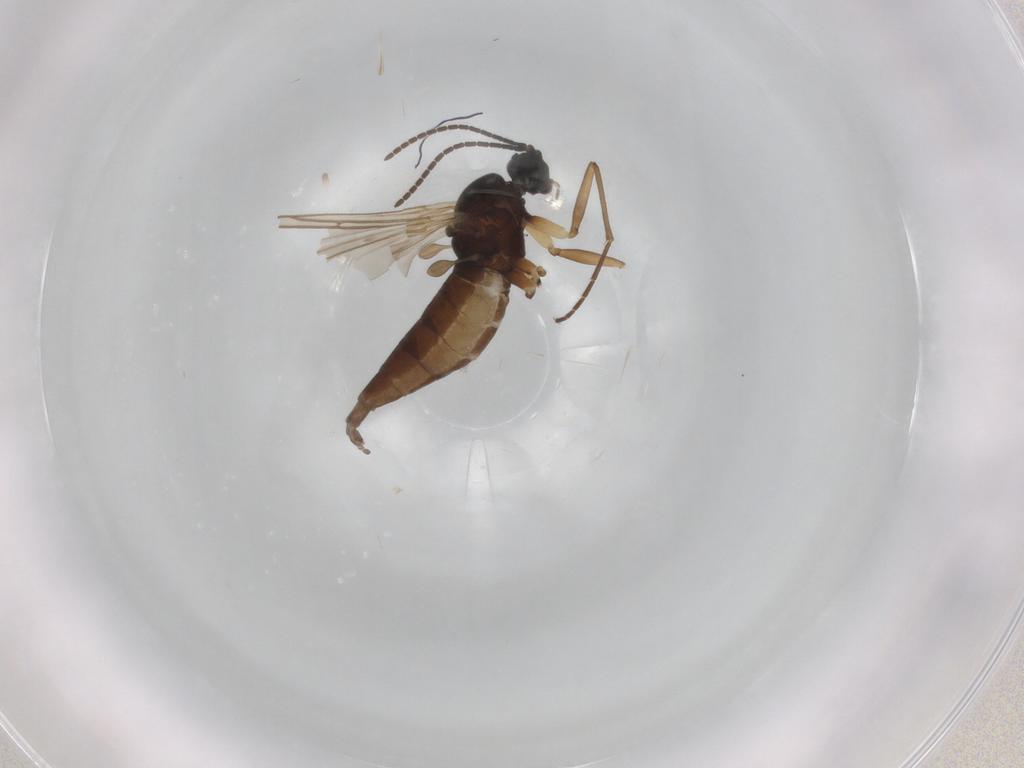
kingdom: Animalia
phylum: Arthropoda
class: Insecta
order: Diptera
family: Sciaridae
